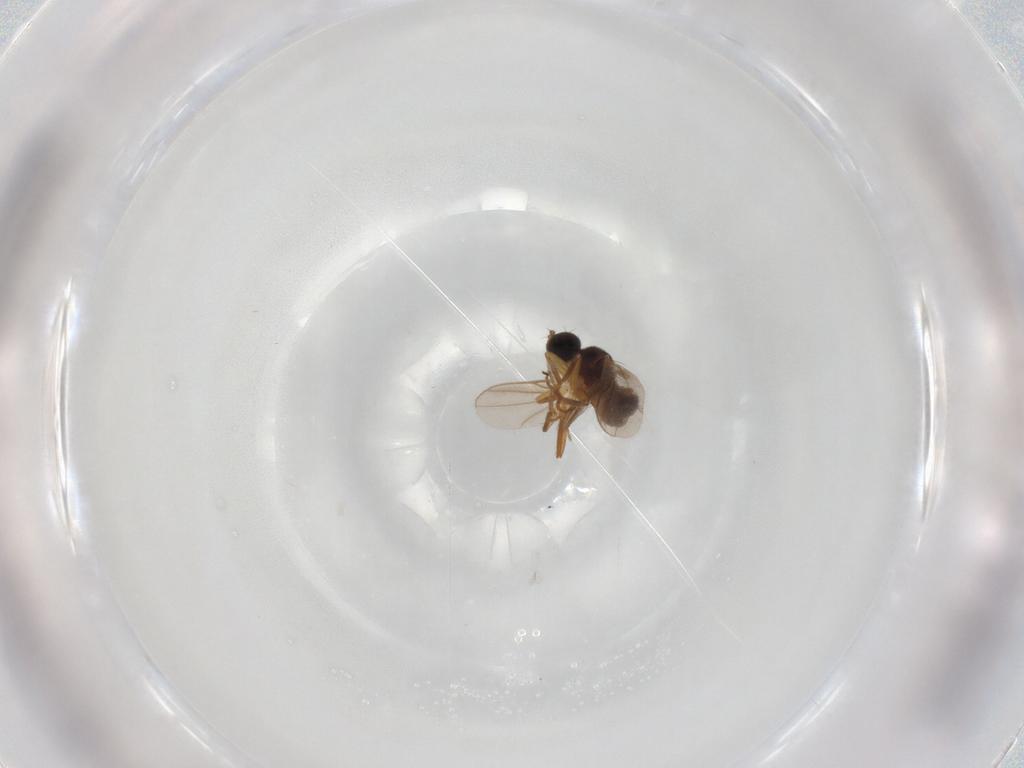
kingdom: Animalia
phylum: Arthropoda
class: Insecta
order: Diptera
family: Hybotidae
